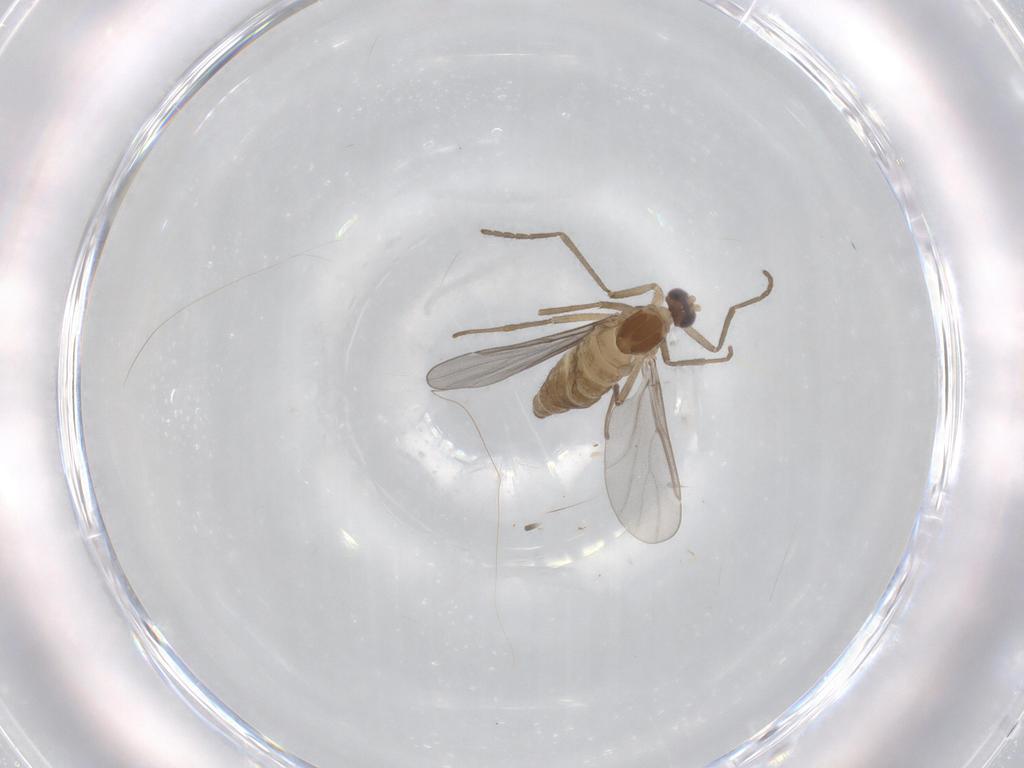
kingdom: Animalia
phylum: Arthropoda
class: Insecta
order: Diptera
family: Cecidomyiidae
